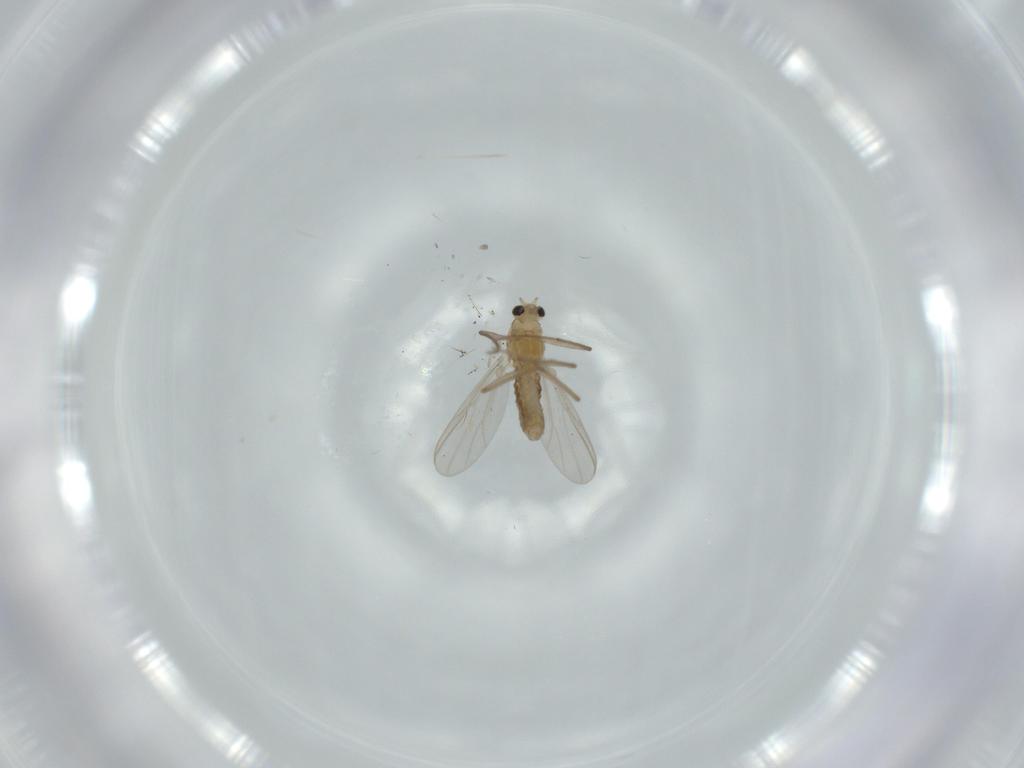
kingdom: Animalia
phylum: Arthropoda
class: Insecta
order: Diptera
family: Chironomidae
